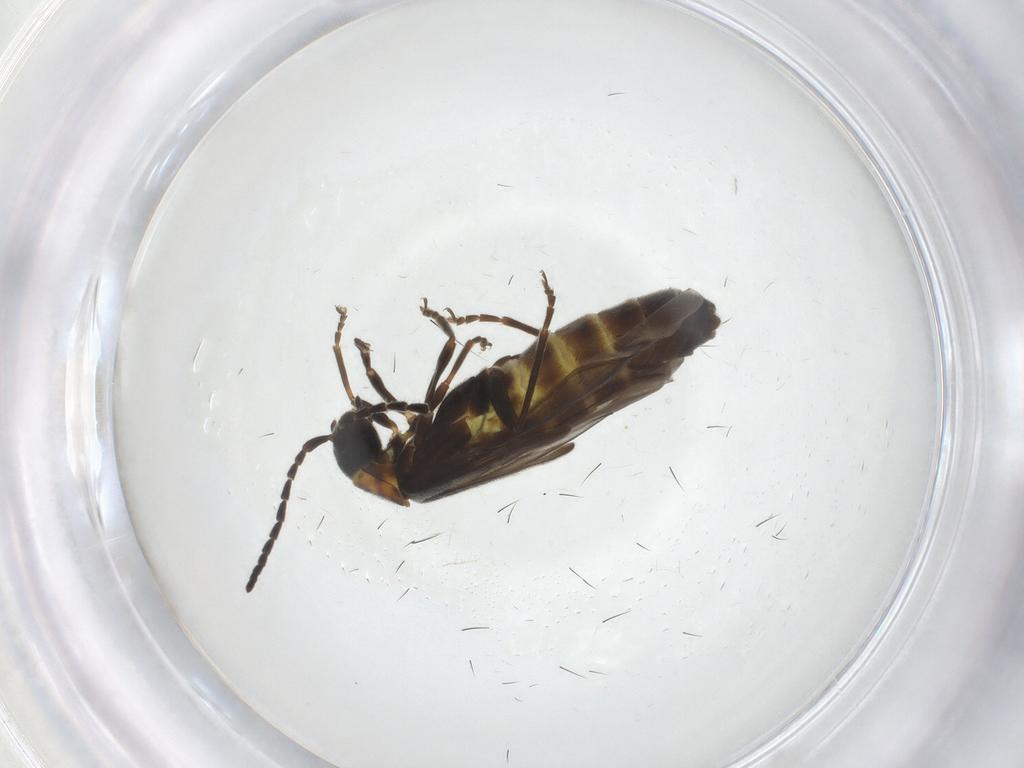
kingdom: Animalia
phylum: Arthropoda
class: Insecta
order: Coleoptera
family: Cantharidae
